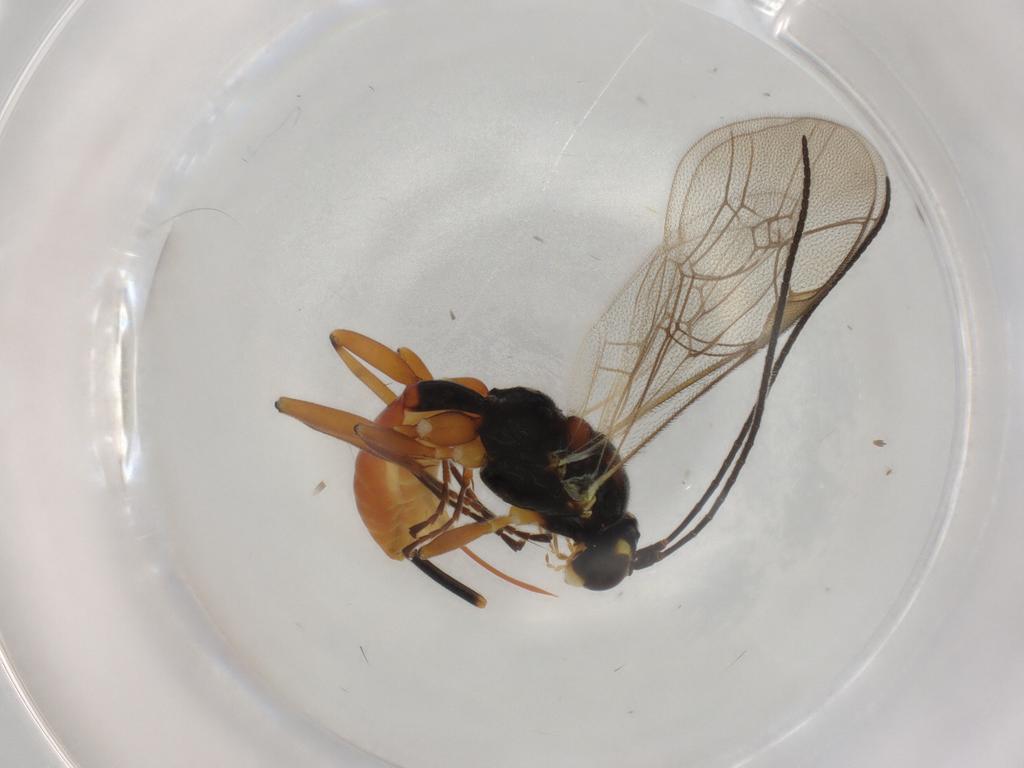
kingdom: Animalia
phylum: Arthropoda
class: Insecta
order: Hymenoptera
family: Ichneumonidae
